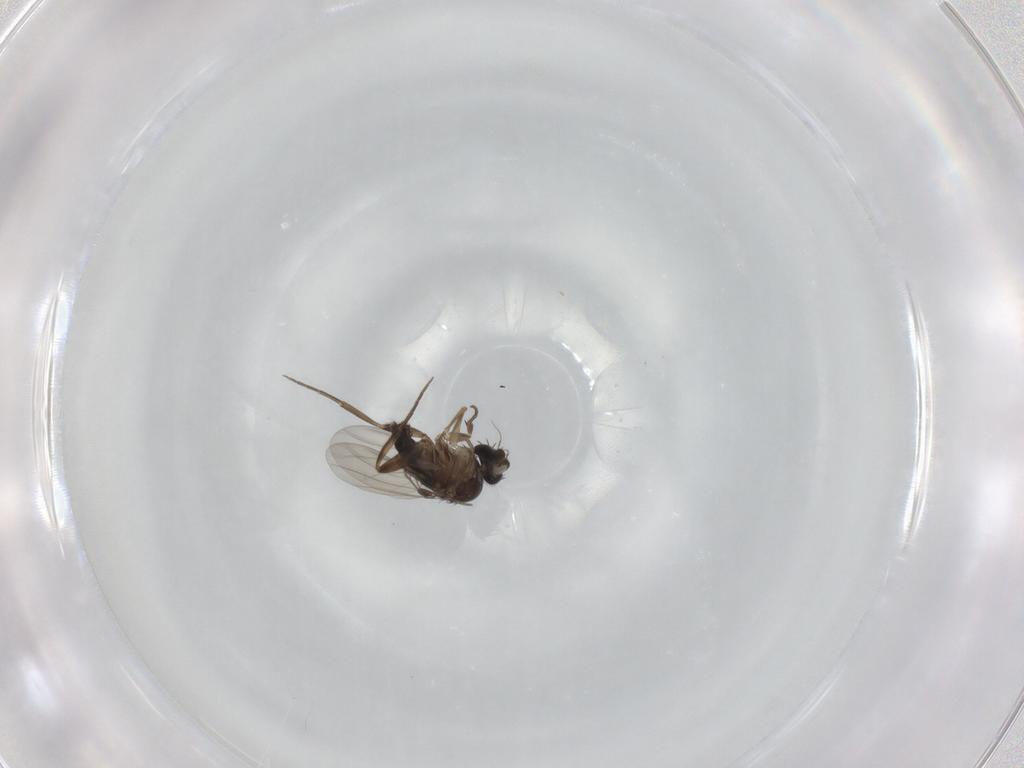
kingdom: Animalia
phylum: Arthropoda
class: Insecta
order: Diptera
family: Phoridae
